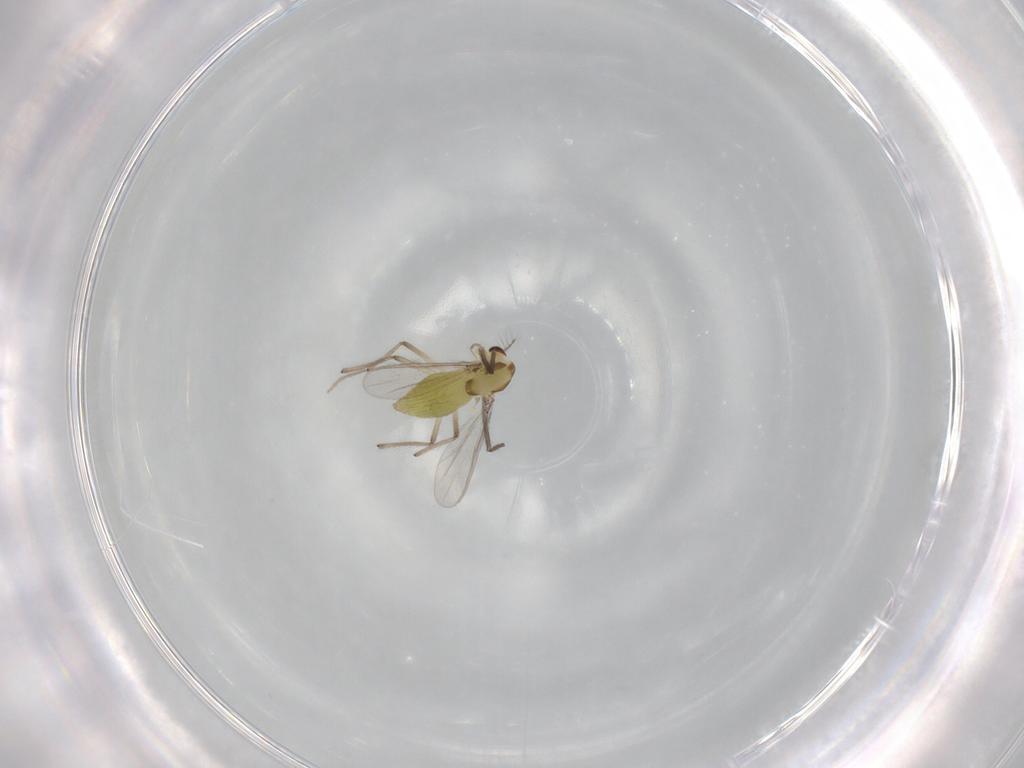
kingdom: Animalia
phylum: Arthropoda
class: Insecta
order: Diptera
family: Chironomidae
